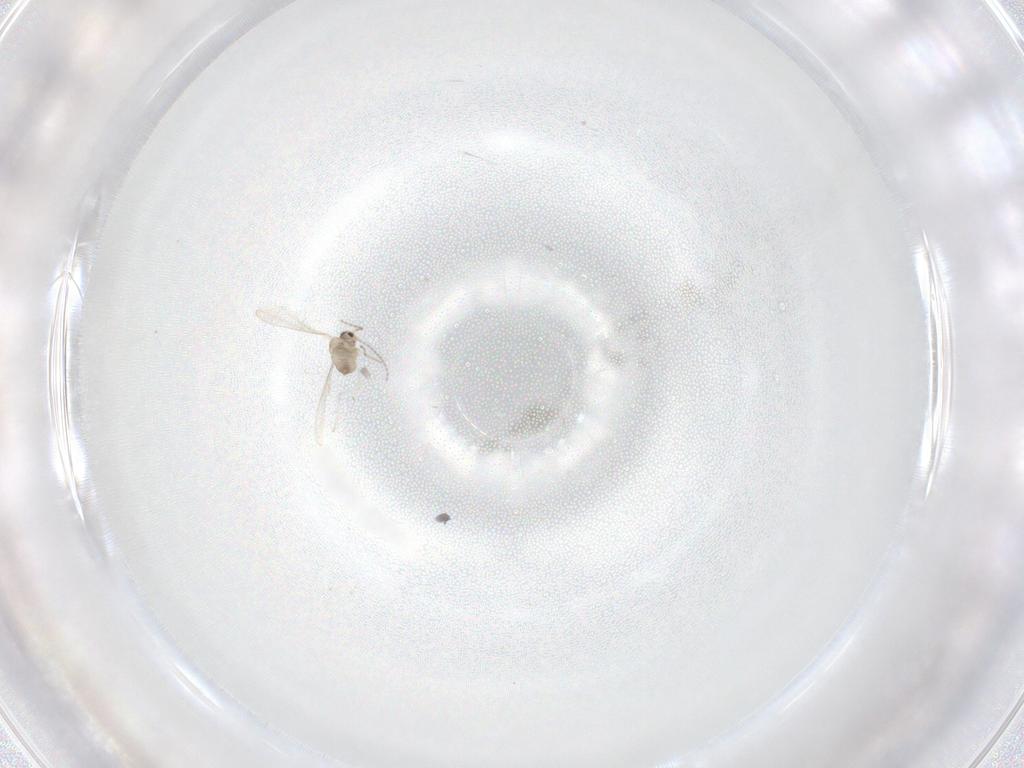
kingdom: Animalia
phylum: Arthropoda
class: Insecta
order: Diptera
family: Cecidomyiidae
